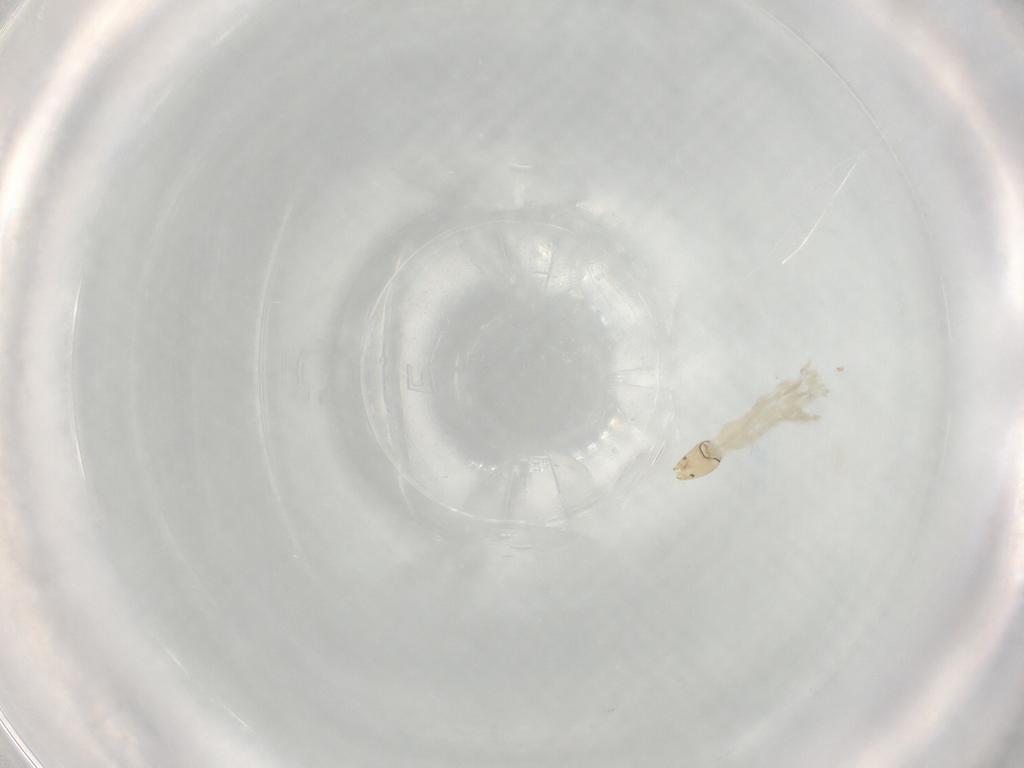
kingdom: Animalia
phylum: Arthropoda
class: Insecta
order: Diptera
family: Chironomidae
